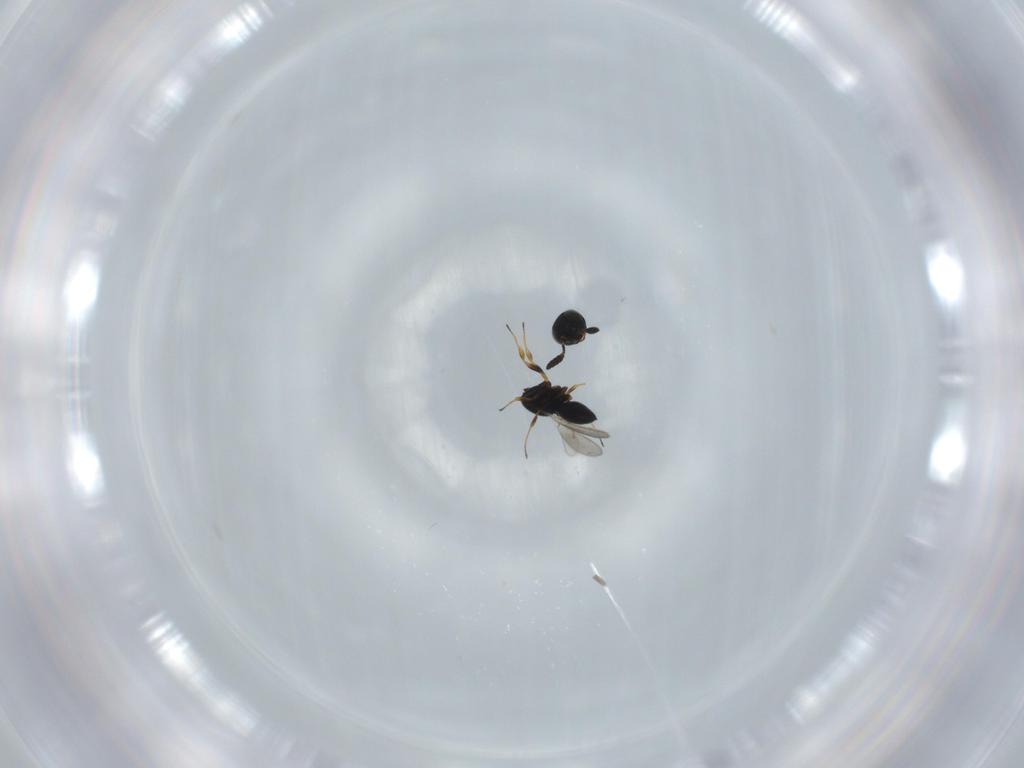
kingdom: Animalia
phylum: Arthropoda
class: Insecta
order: Hymenoptera
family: Scelionidae
